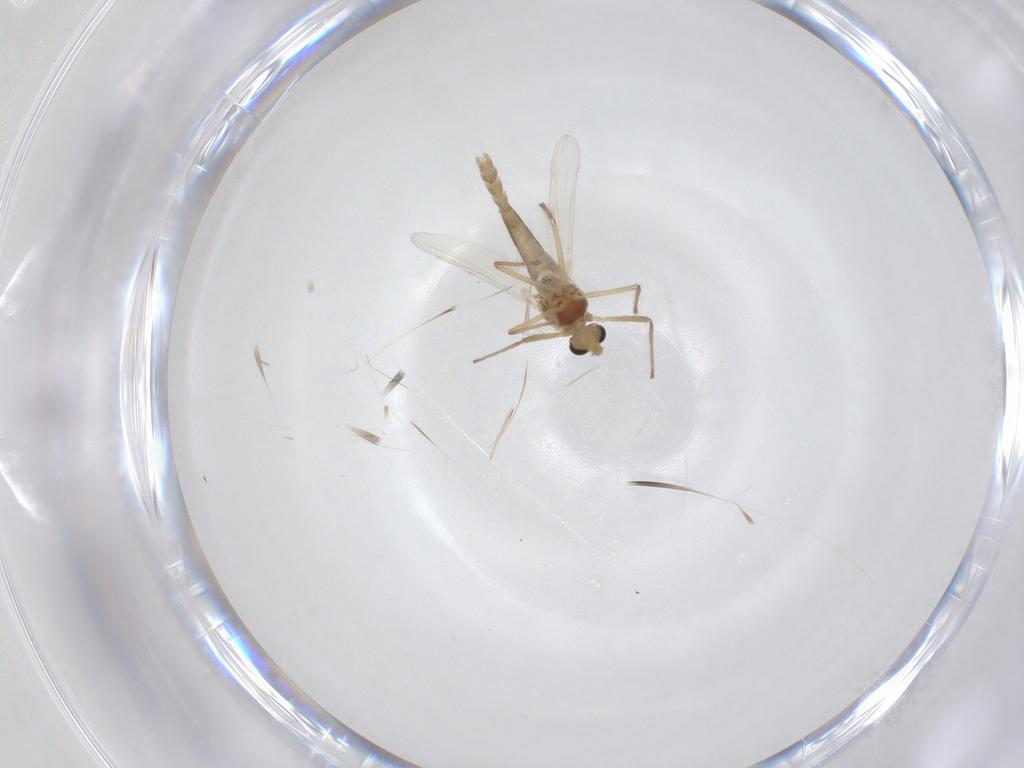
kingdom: Animalia
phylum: Arthropoda
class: Insecta
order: Diptera
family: Chironomidae
